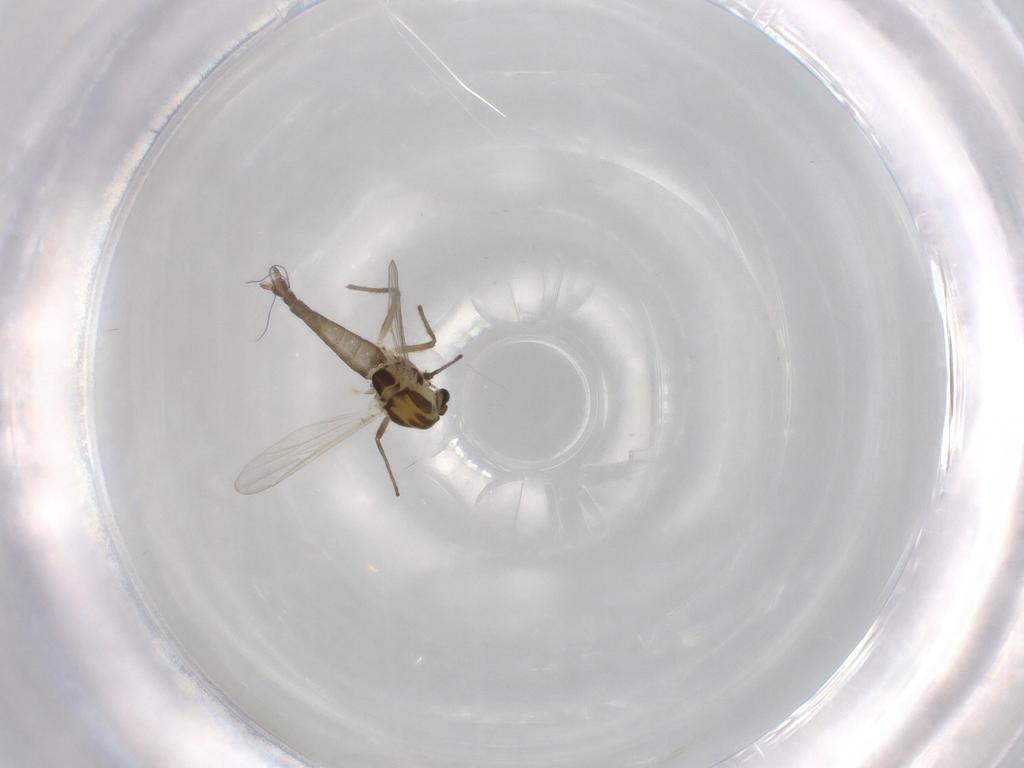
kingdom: Animalia
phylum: Arthropoda
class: Insecta
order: Diptera
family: Chironomidae
